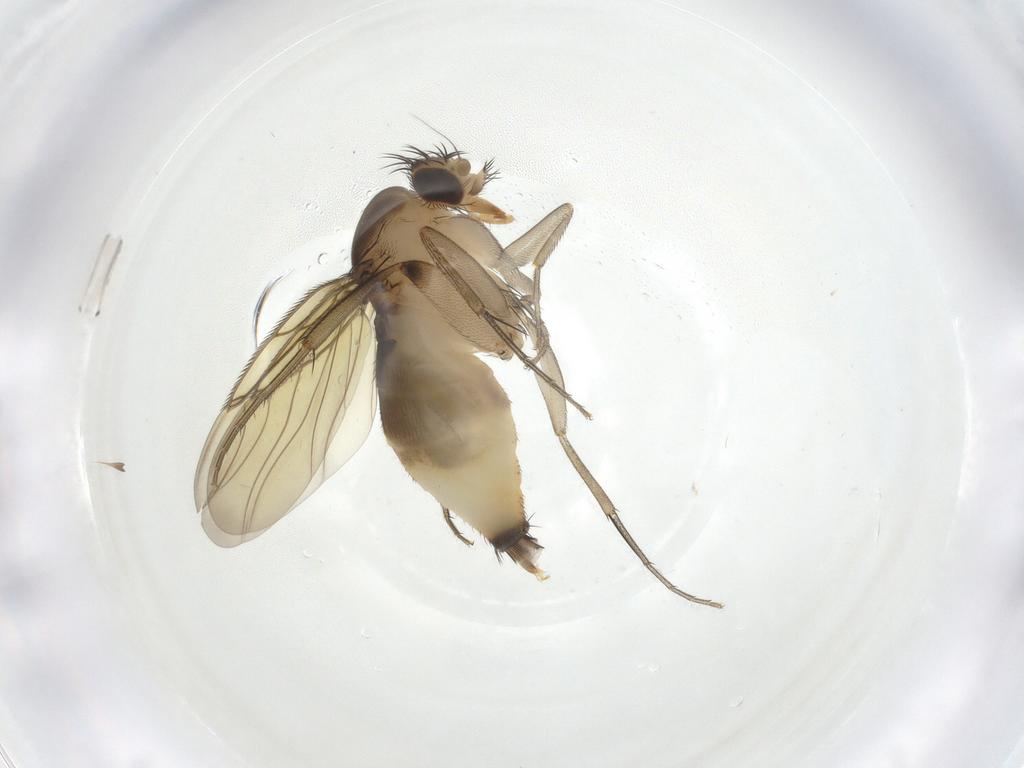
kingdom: Animalia
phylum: Arthropoda
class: Insecta
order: Diptera
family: Phoridae
